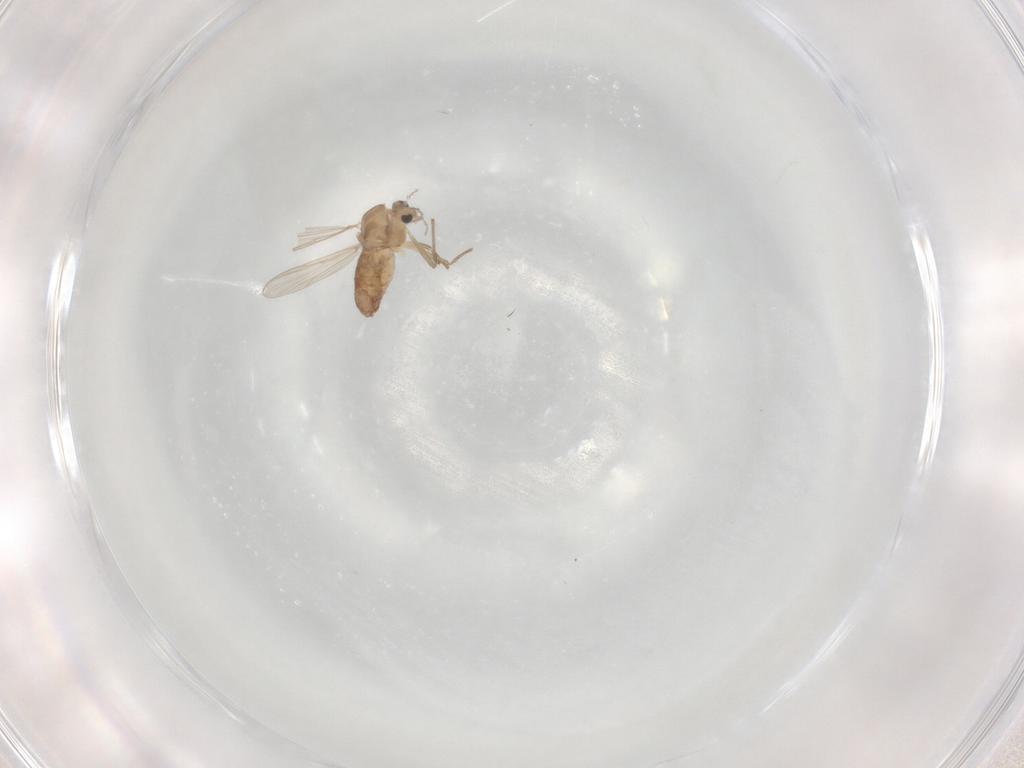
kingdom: Animalia
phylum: Arthropoda
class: Insecta
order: Diptera
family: Chironomidae
